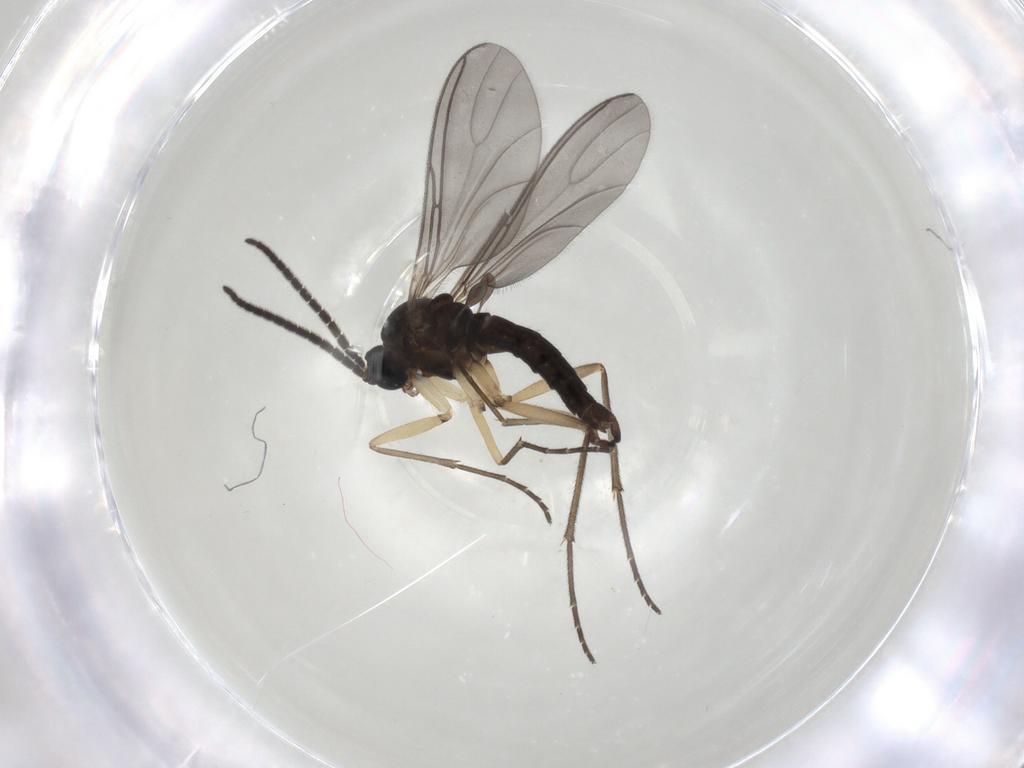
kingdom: Animalia
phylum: Arthropoda
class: Insecta
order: Diptera
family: Sciaridae
